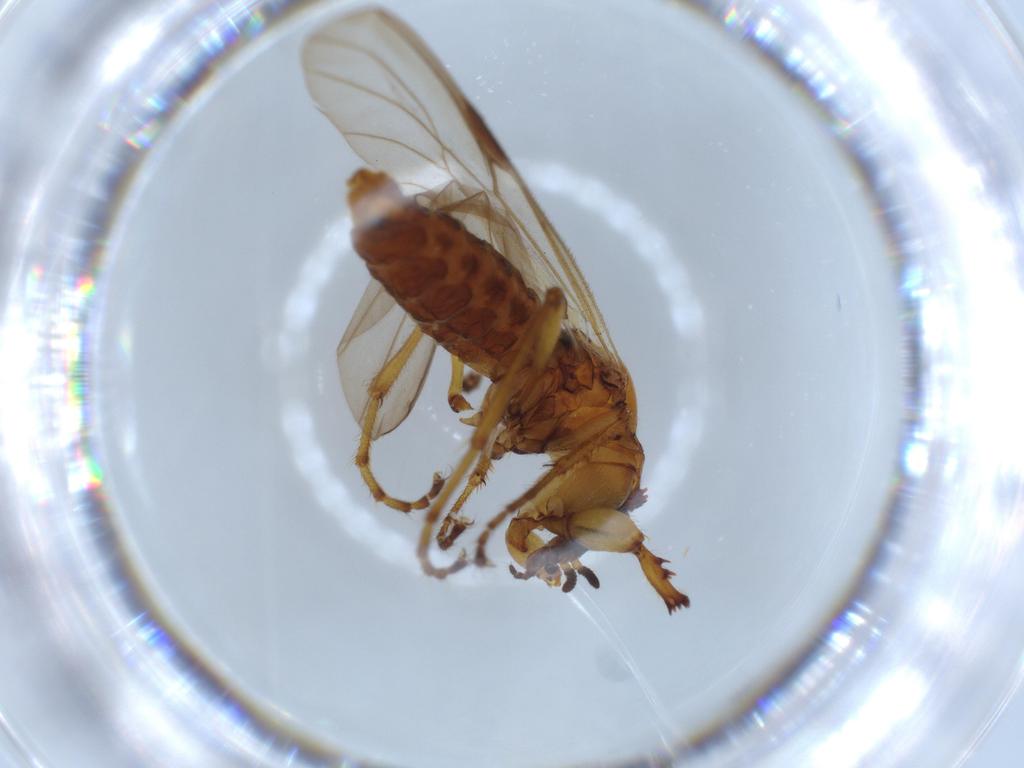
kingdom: Animalia
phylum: Arthropoda
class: Insecta
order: Diptera
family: Bibionidae
